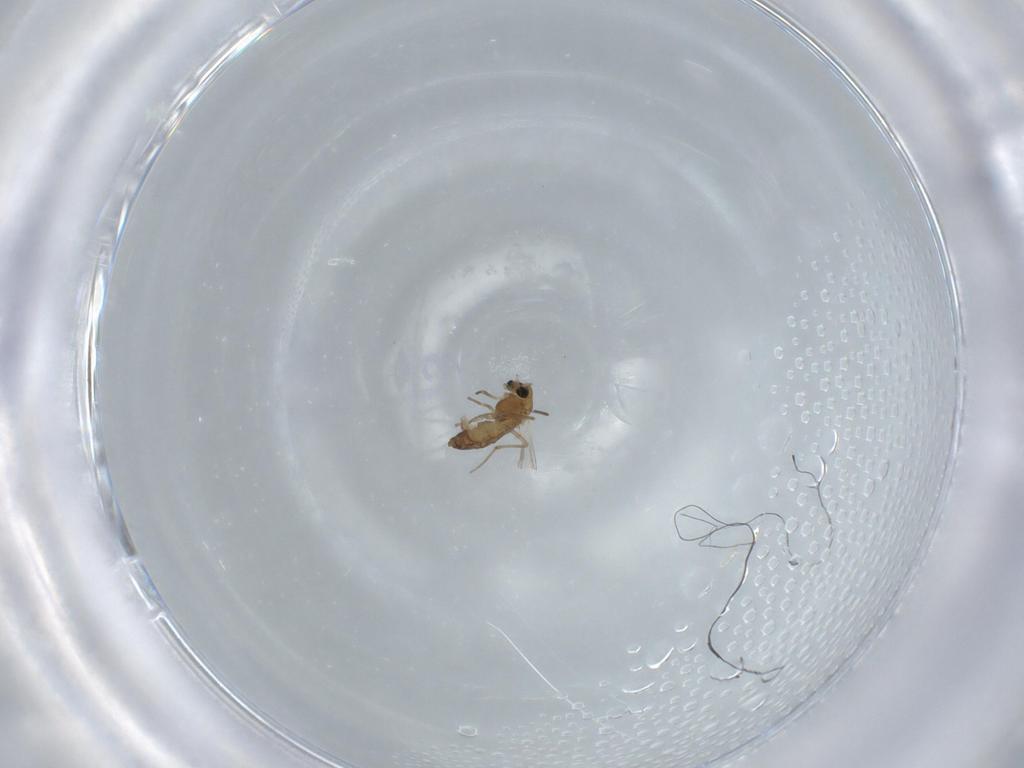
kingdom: Animalia
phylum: Arthropoda
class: Insecta
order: Diptera
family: Chironomidae
